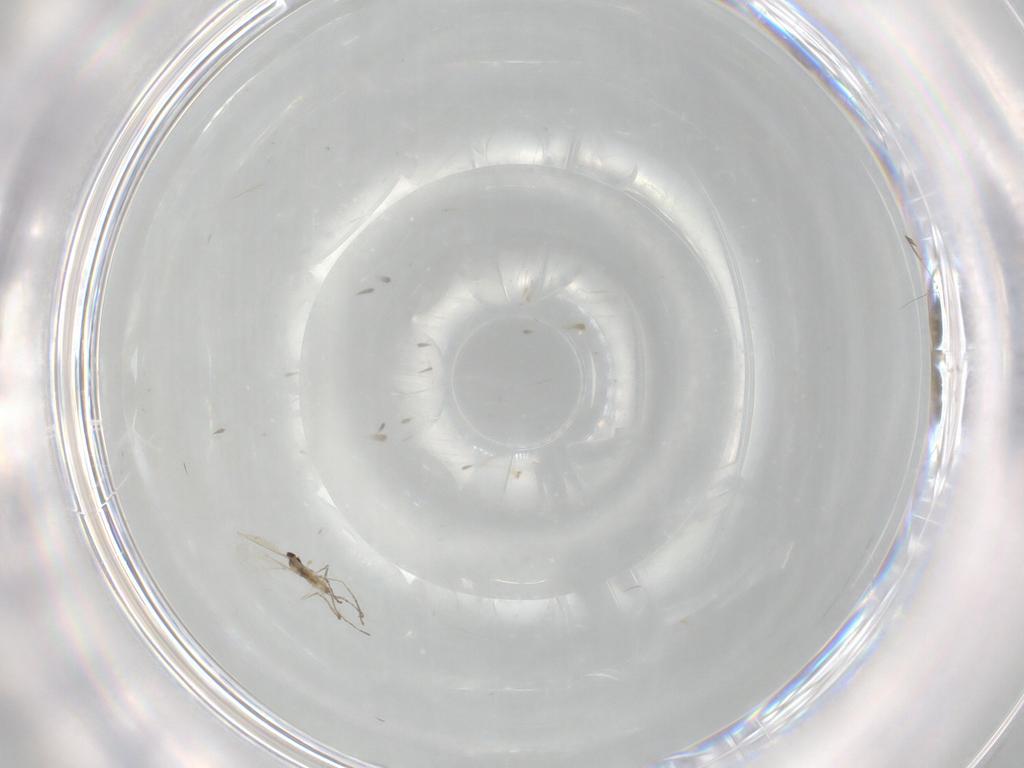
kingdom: Animalia
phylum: Arthropoda
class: Insecta
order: Diptera
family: Cecidomyiidae
